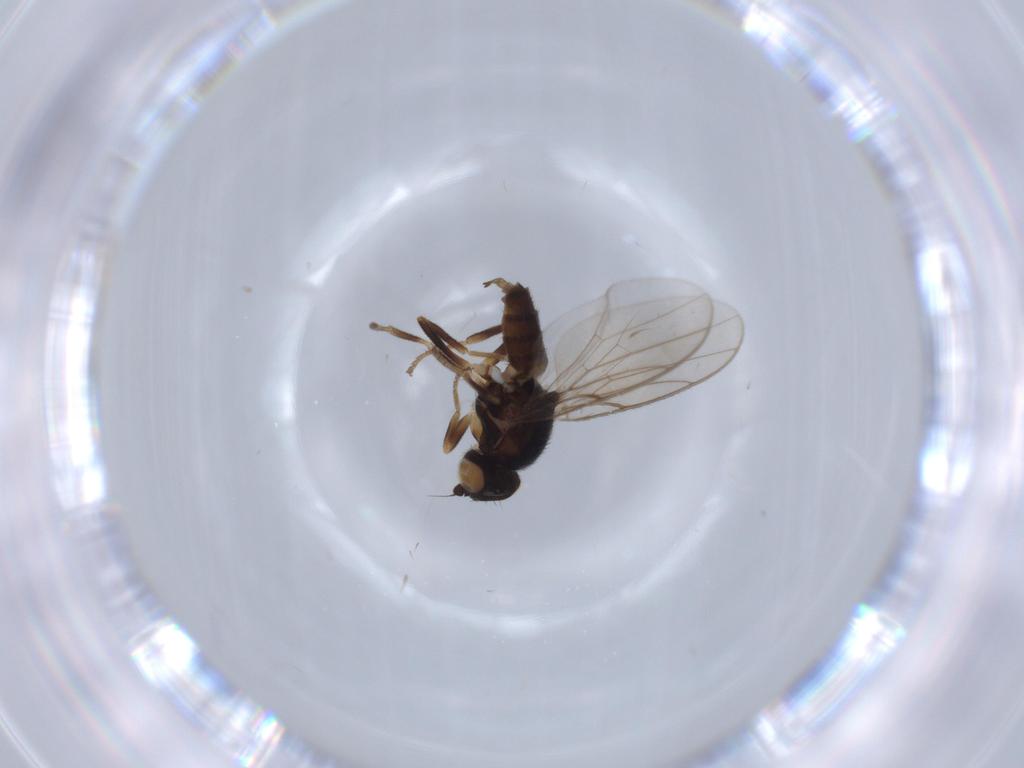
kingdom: Animalia
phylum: Arthropoda
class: Insecta
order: Diptera
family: Chloropidae
